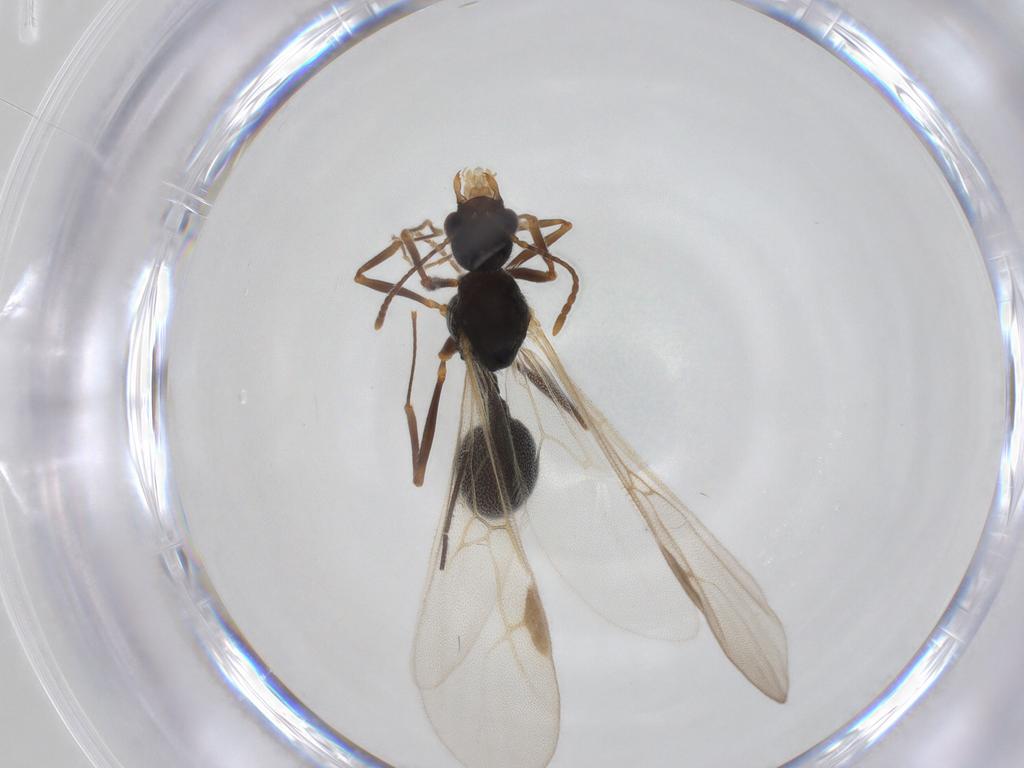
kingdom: Animalia
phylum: Arthropoda
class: Insecta
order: Hymenoptera
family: Formicidae
